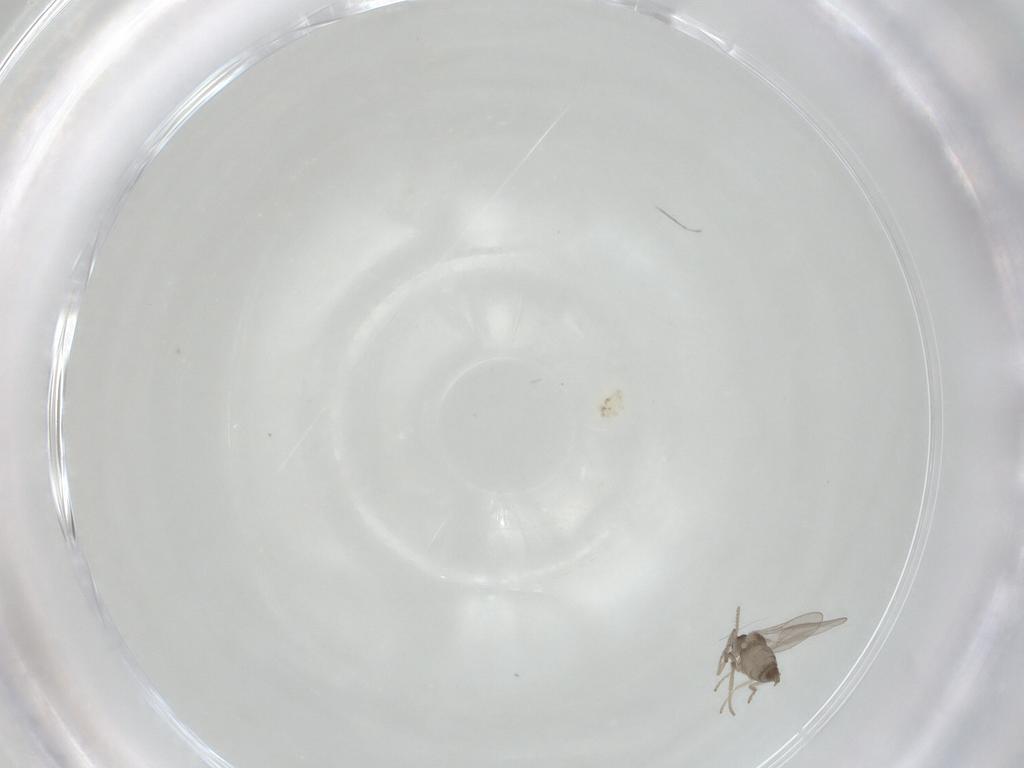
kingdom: Animalia
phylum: Arthropoda
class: Insecta
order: Diptera
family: Cecidomyiidae
